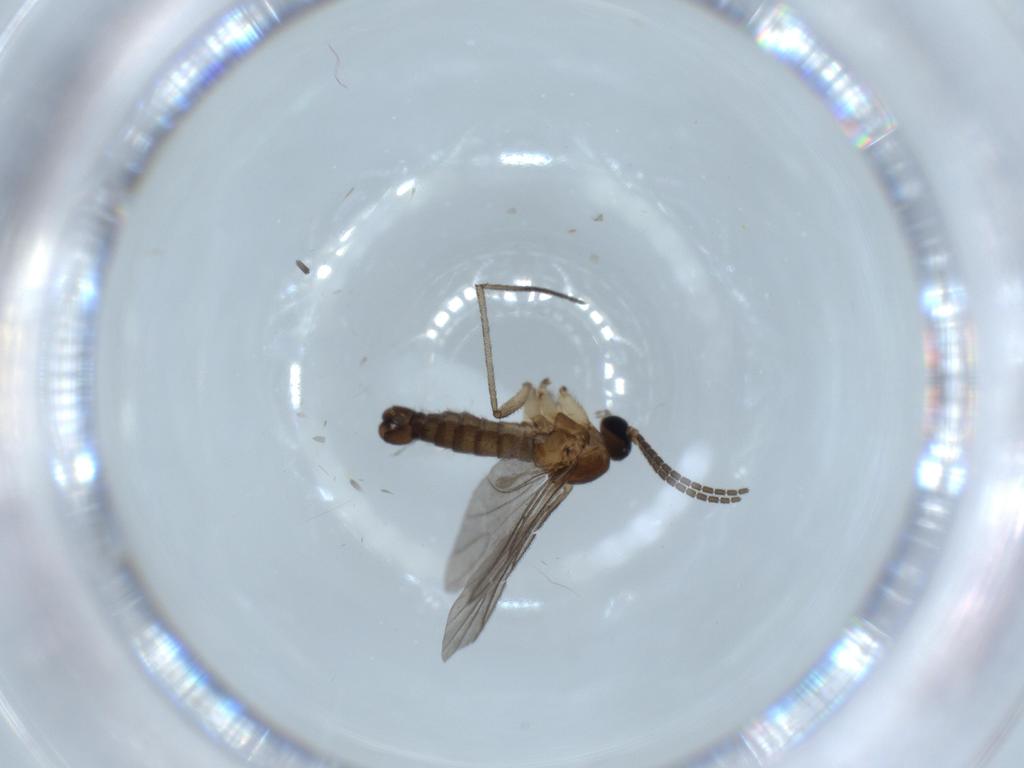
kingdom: Animalia
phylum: Arthropoda
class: Insecta
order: Diptera
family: Sciaridae
